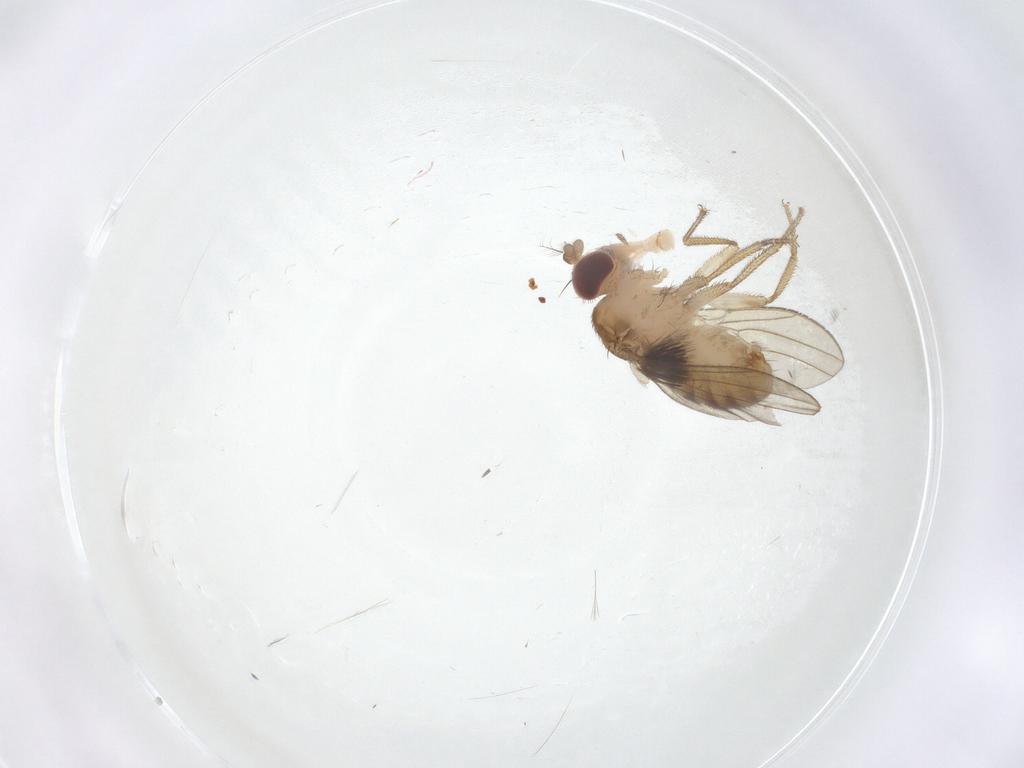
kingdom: Animalia
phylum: Arthropoda
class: Insecta
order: Diptera
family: Drosophilidae
